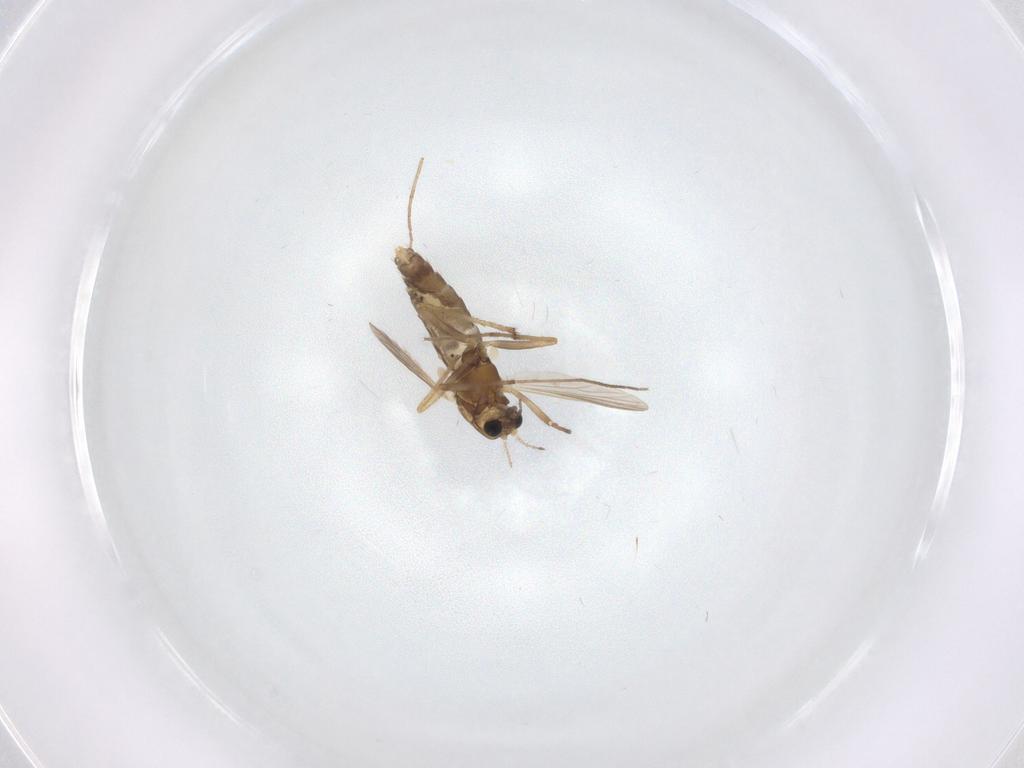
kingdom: Animalia
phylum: Arthropoda
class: Insecta
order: Diptera
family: Chironomidae
